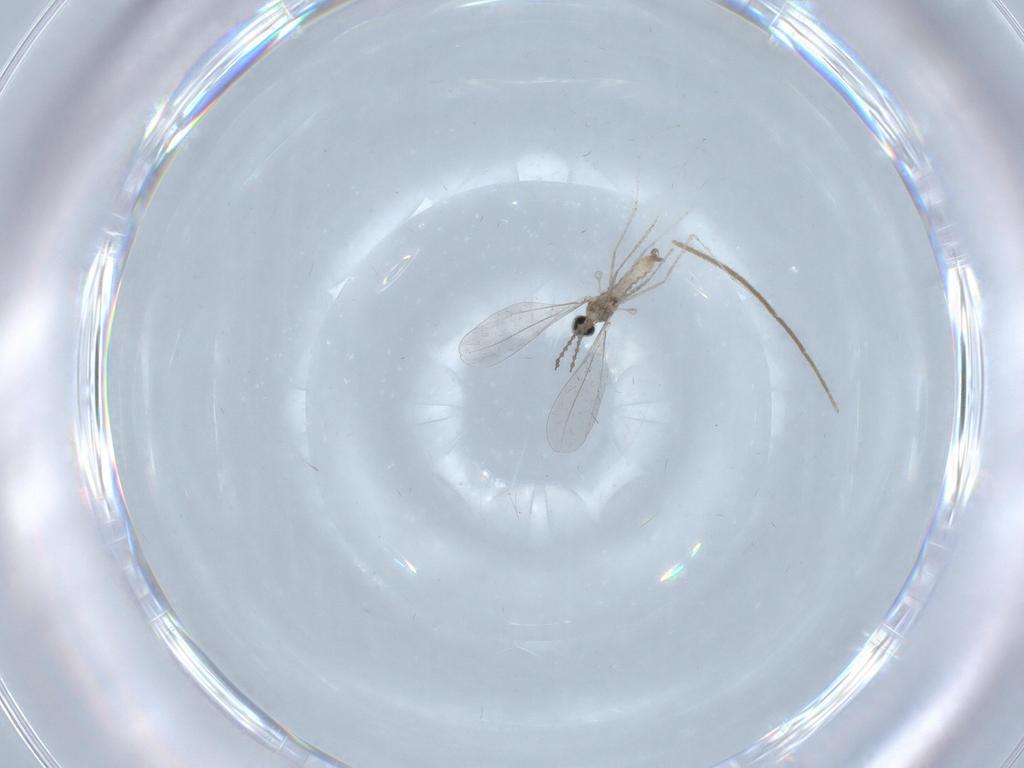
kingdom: Animalia
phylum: Arthropoda
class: Insecta
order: Diptera
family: Chironomidae
